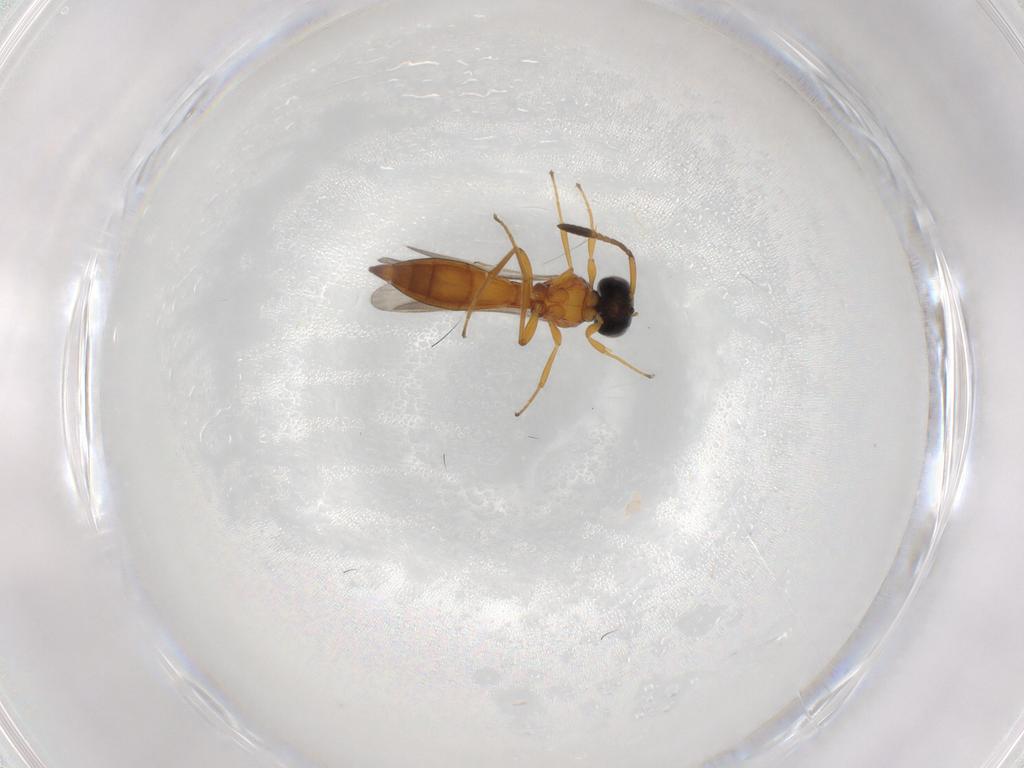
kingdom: Animalia
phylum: Arthropoda
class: Insecta
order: Hymenoptera
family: Scelionidae
